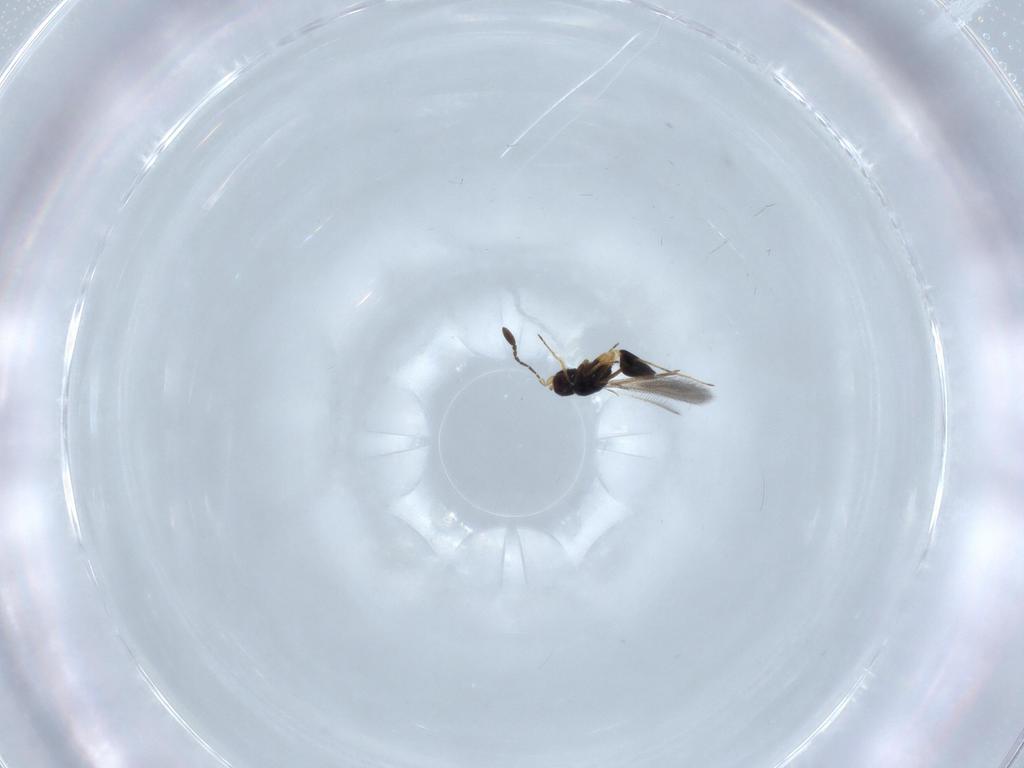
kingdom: Animalia
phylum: Arthropoda
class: Insecta
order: Hymenoptera
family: Mymaridae
